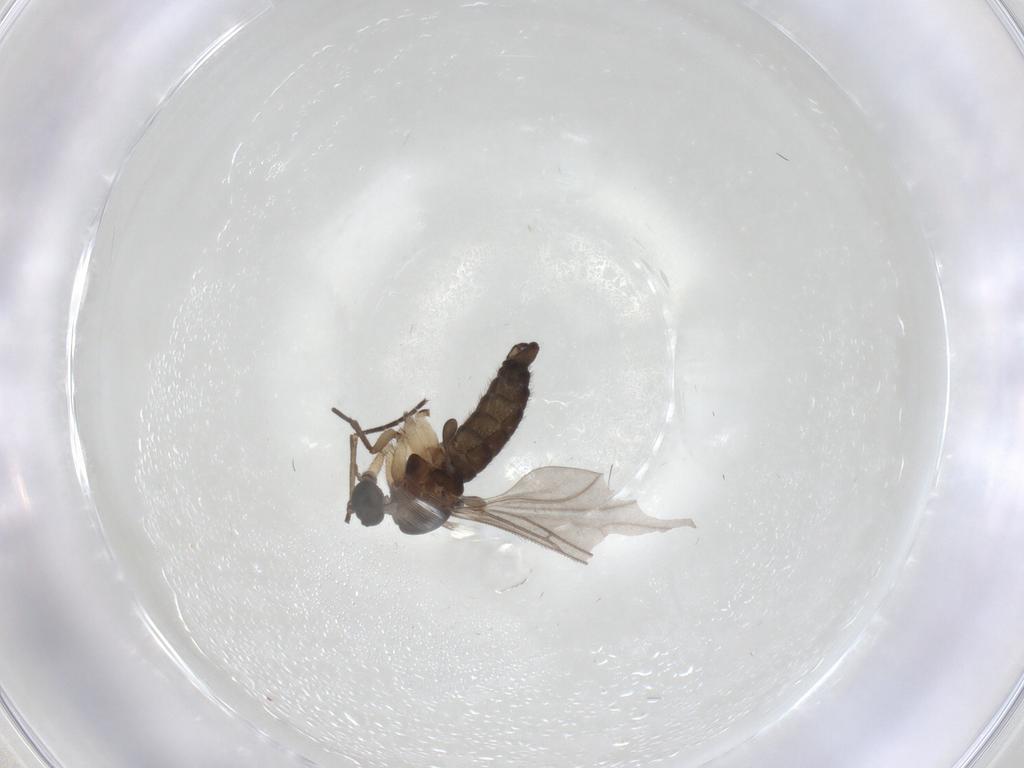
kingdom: Animalia
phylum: Arthropoda
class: Insecta
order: Diptera
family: Sciaridae
